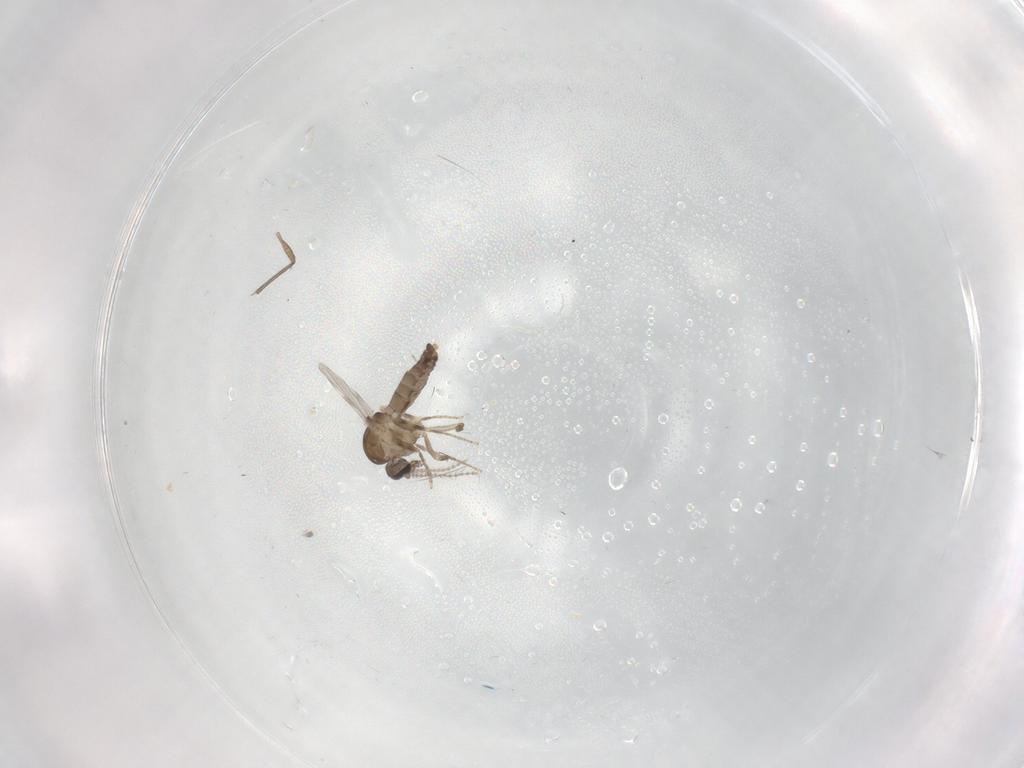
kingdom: Animalia
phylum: Arthropoda
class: Insecta
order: Diptera
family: Ceratopogonidae
